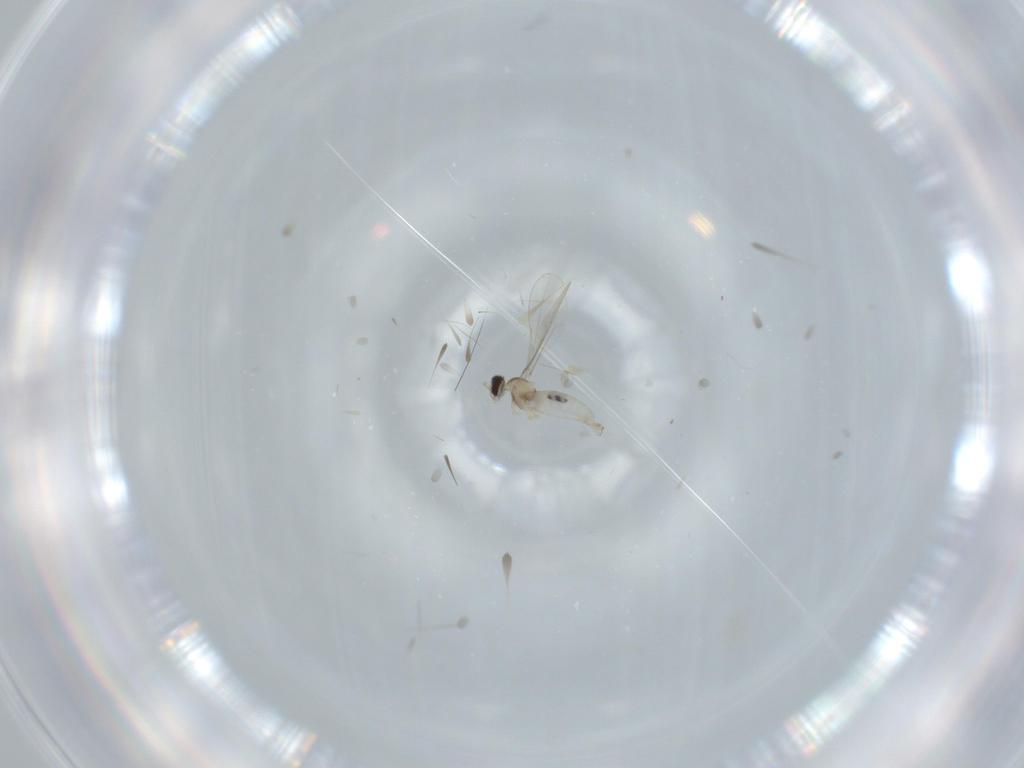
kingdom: Animalia
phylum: Arthropoda
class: Insecta
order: Diptera
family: Cecidomyiidae
